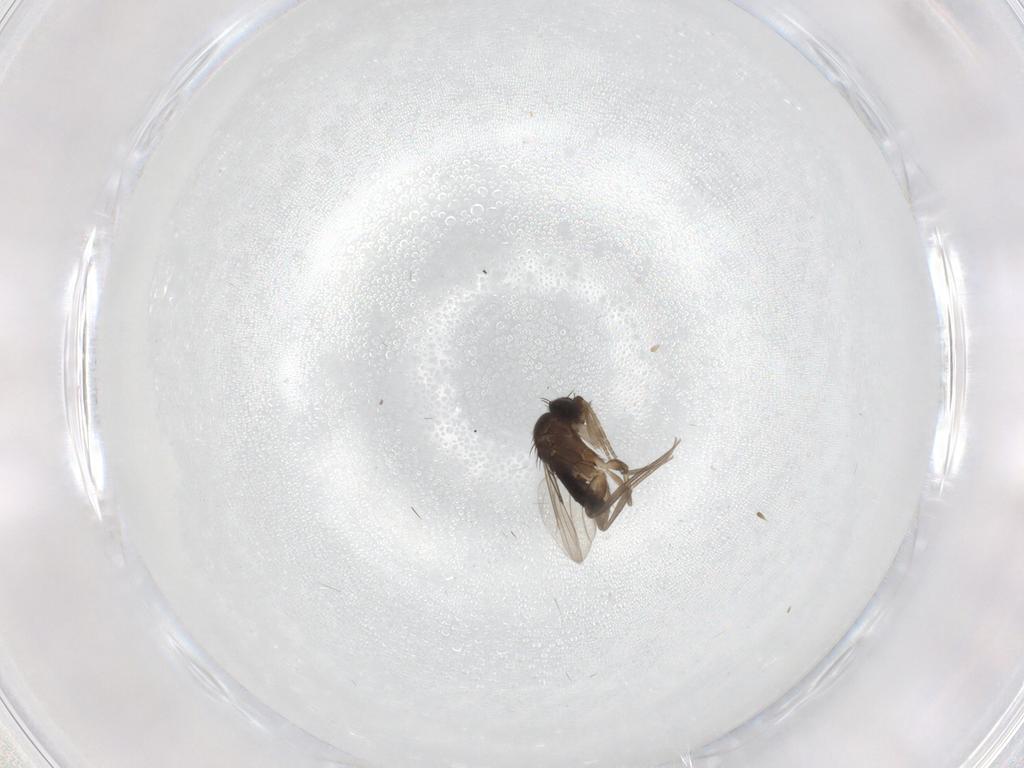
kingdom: Animalia
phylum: Arthropoda
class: Insecta
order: Diptera
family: Phoridae
